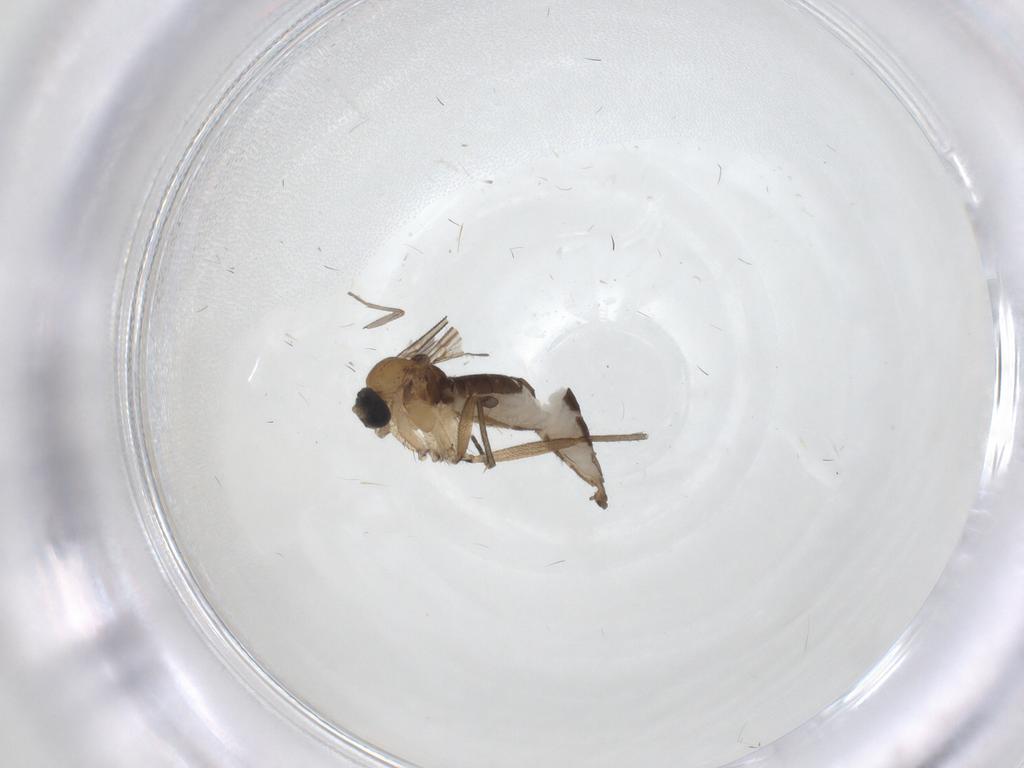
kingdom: Animalia
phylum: Arthropoda
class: Insecta
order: Diptera
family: Sciaridae
